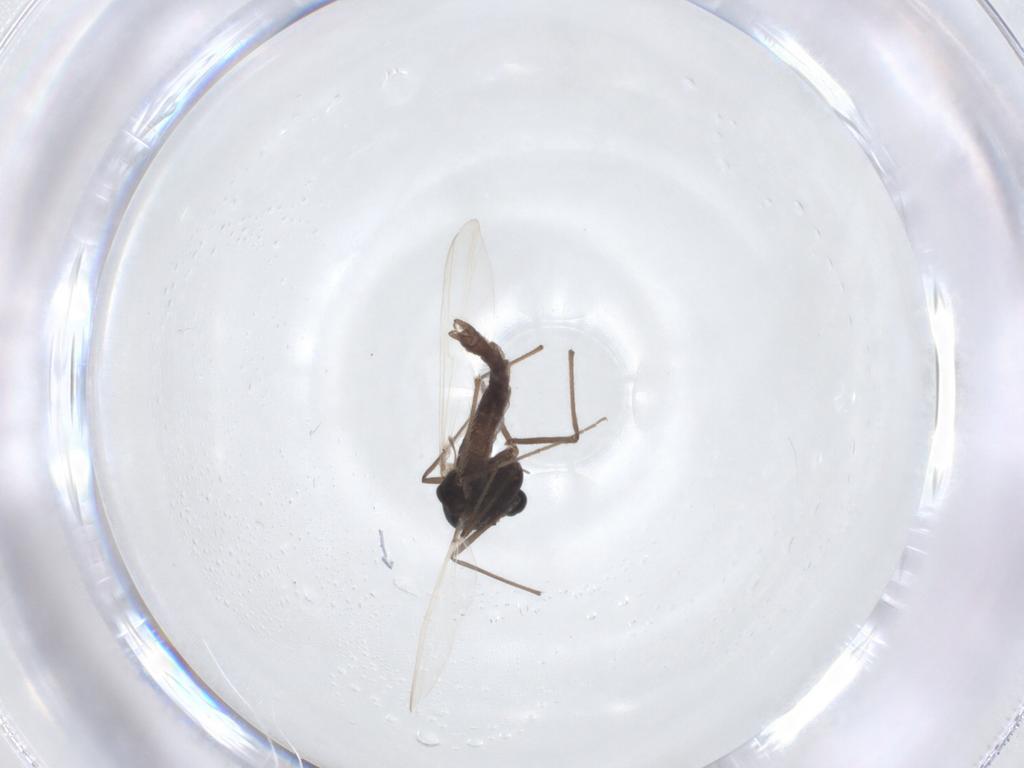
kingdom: Animalia
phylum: Arthropoda
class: Insecta
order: Diptera
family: Chironomidae
